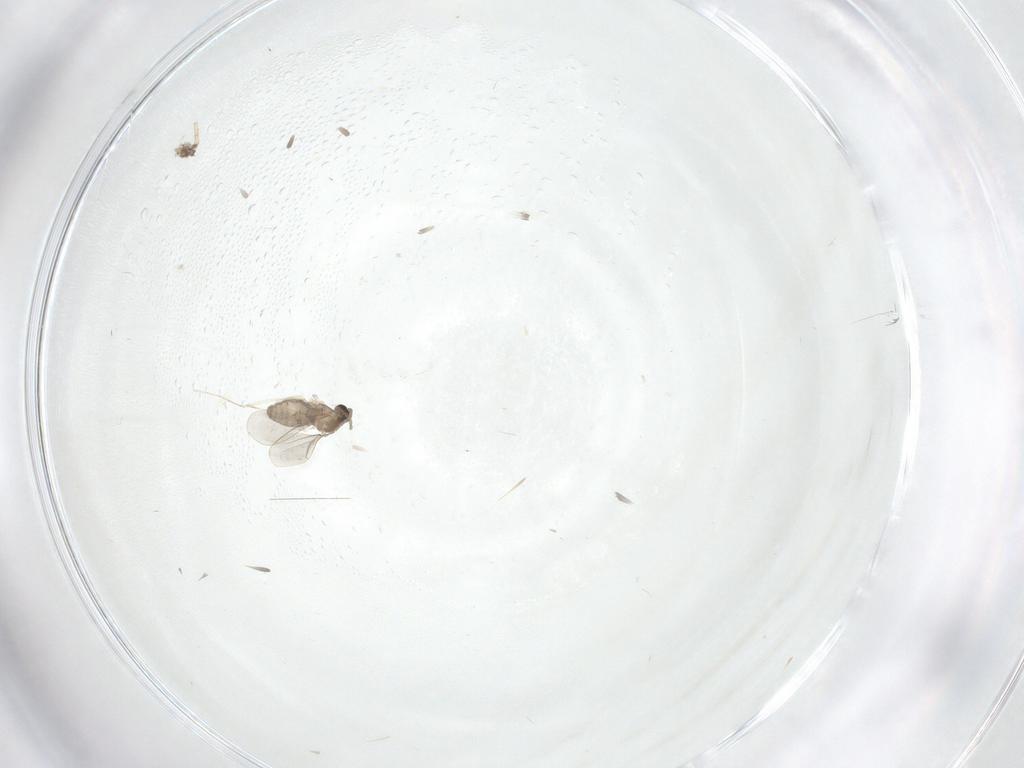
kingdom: Animalia
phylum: Arthropoda
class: Insecta
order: Diptera
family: Cecidomyiidae
